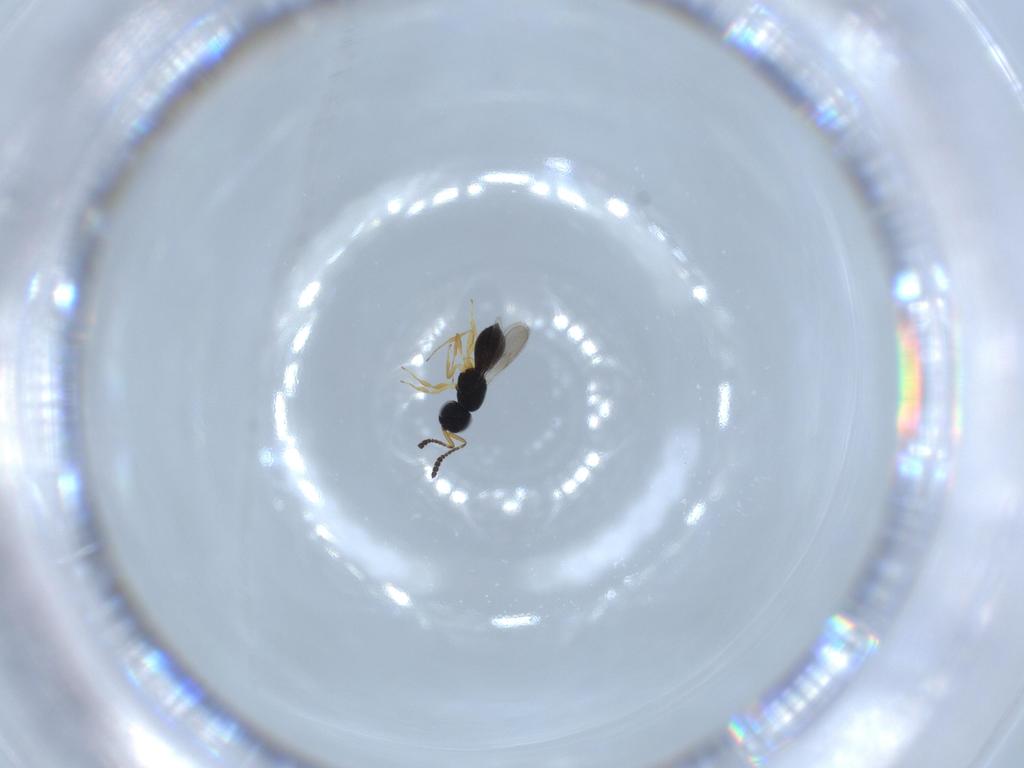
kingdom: Animalia
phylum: Arthropoda
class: Insecta
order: Hymenoptera
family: Scelionidae
